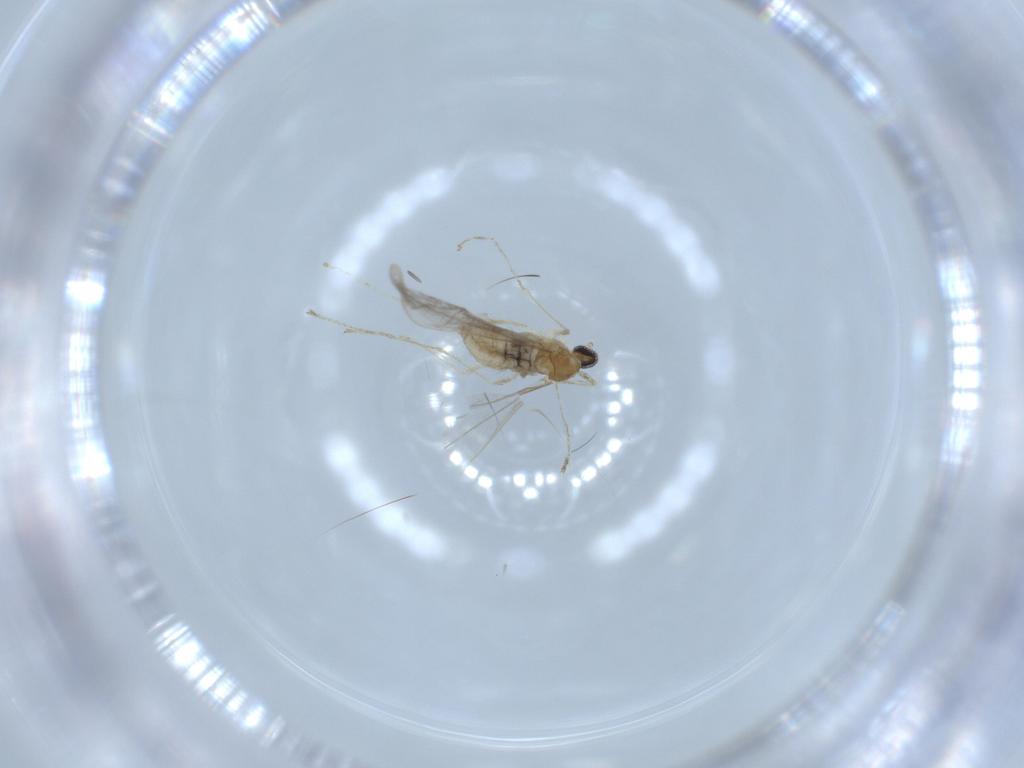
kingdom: Animalia
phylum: Arthropoda
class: Insecta
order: Diptera
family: Cecidomyiidae
